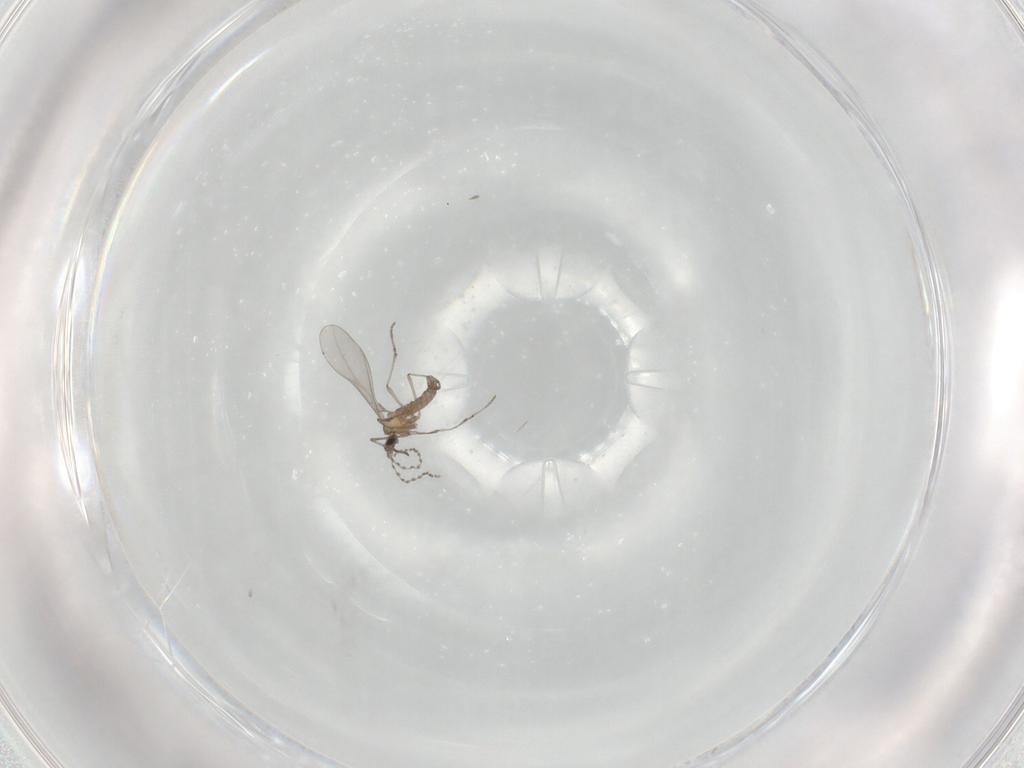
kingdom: Animalia
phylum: Arthropoda
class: Insecta
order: Diptera
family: Cecidomyiidae
